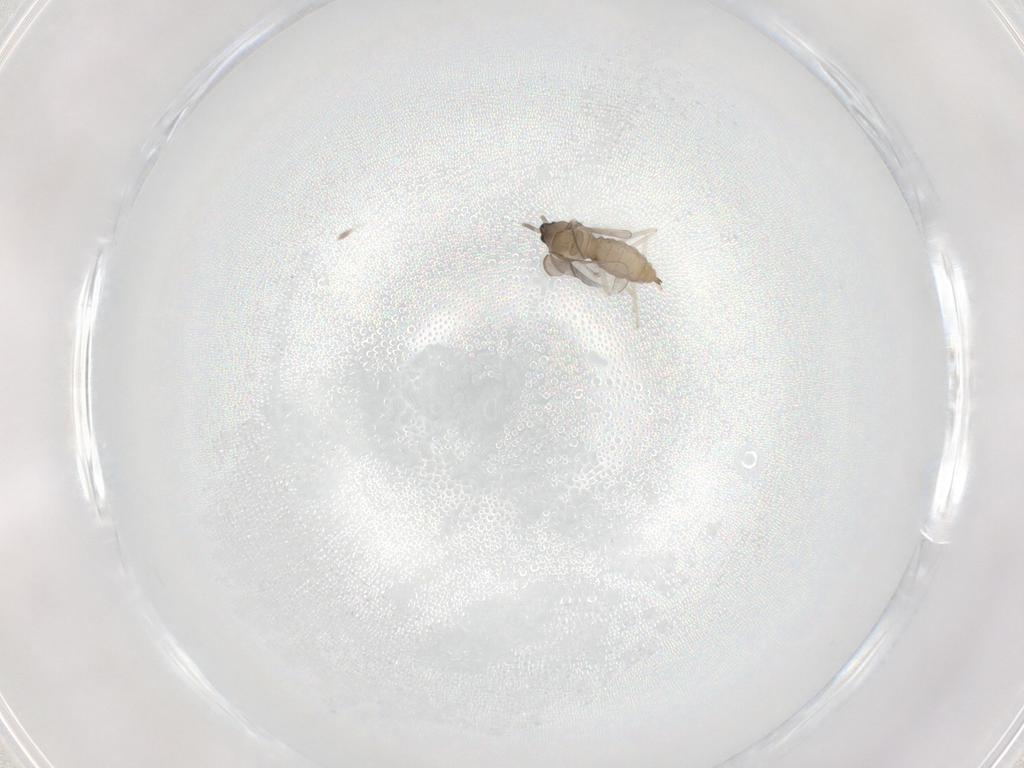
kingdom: Animalia
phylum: Arthropoda
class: Insecta
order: Diptera
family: Cecidomyiidae
